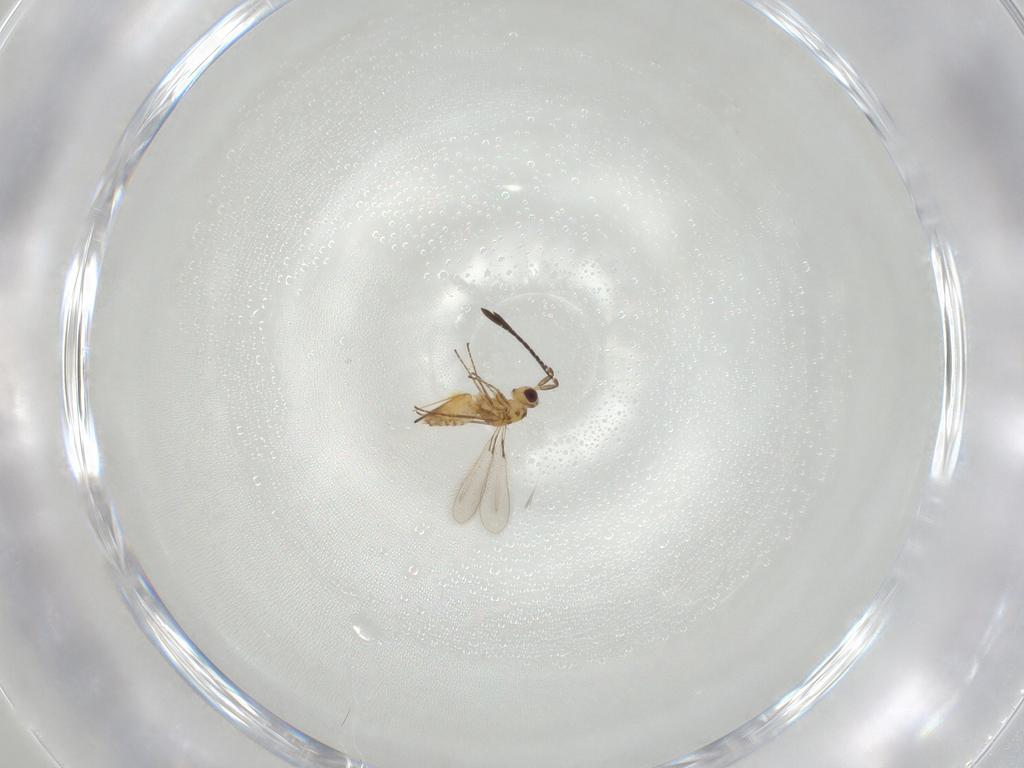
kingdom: Animalia
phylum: Arthropoda
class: Insecta
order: Hymenoptera
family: Mymaridae
